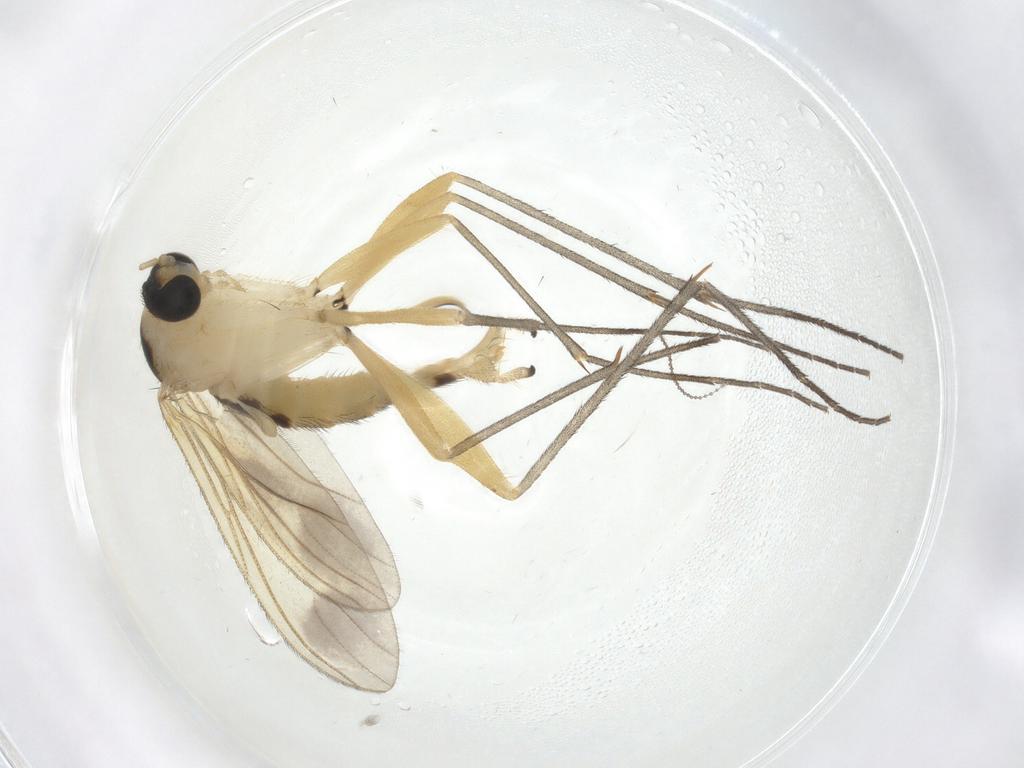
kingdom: Animalia
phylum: Arthropoda
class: Insecta
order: Diptera
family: Sciaridae
